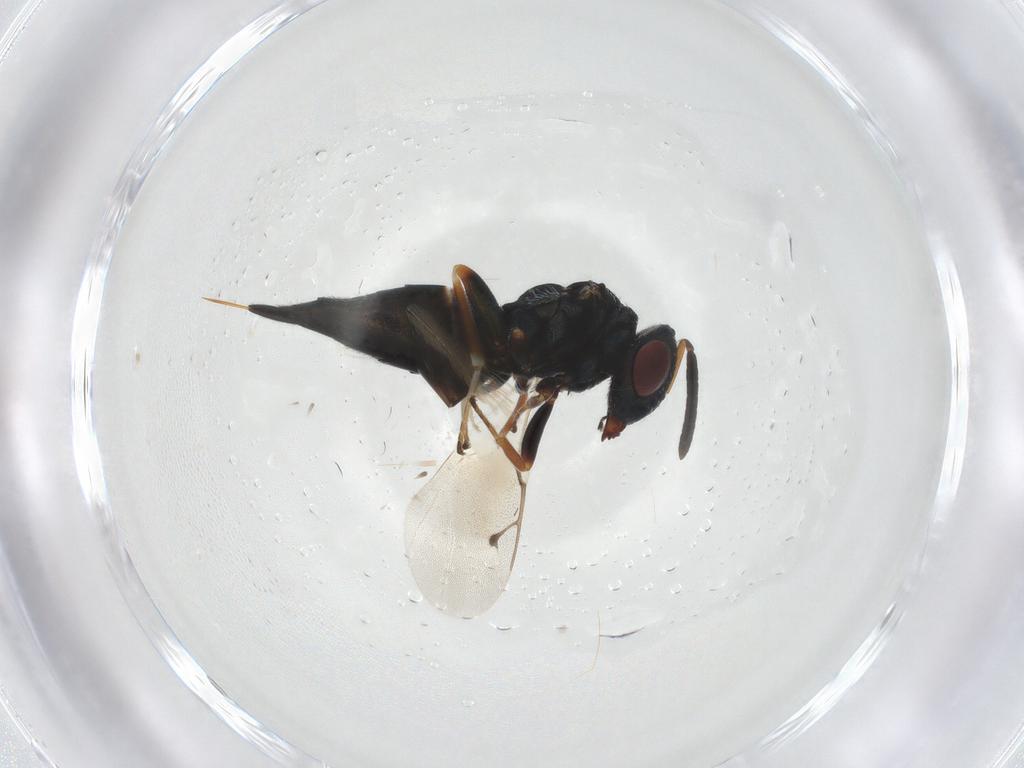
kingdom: Animalia
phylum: Arthropoda
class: Insecta
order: Hymenoptera
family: Pteromalidae
